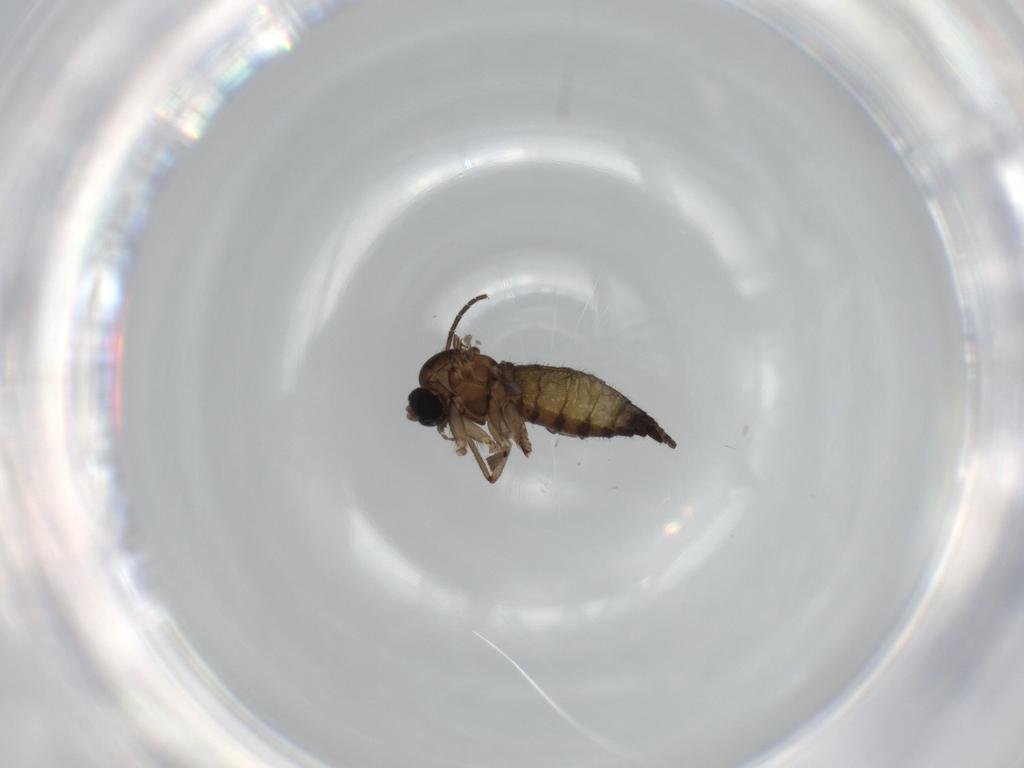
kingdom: Animalia
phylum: Arthropoda
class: Insecta
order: Diptera
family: Sciaridae
